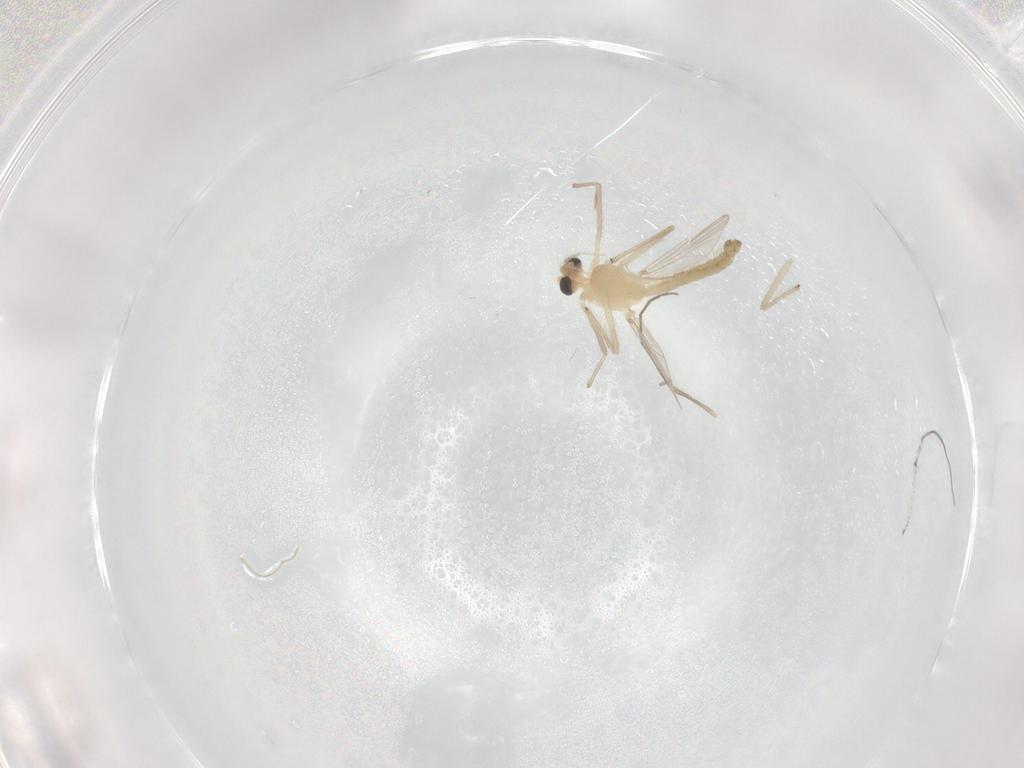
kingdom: Animalia
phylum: Arthropoda
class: Insecta
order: Diptera
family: Chironomidae
